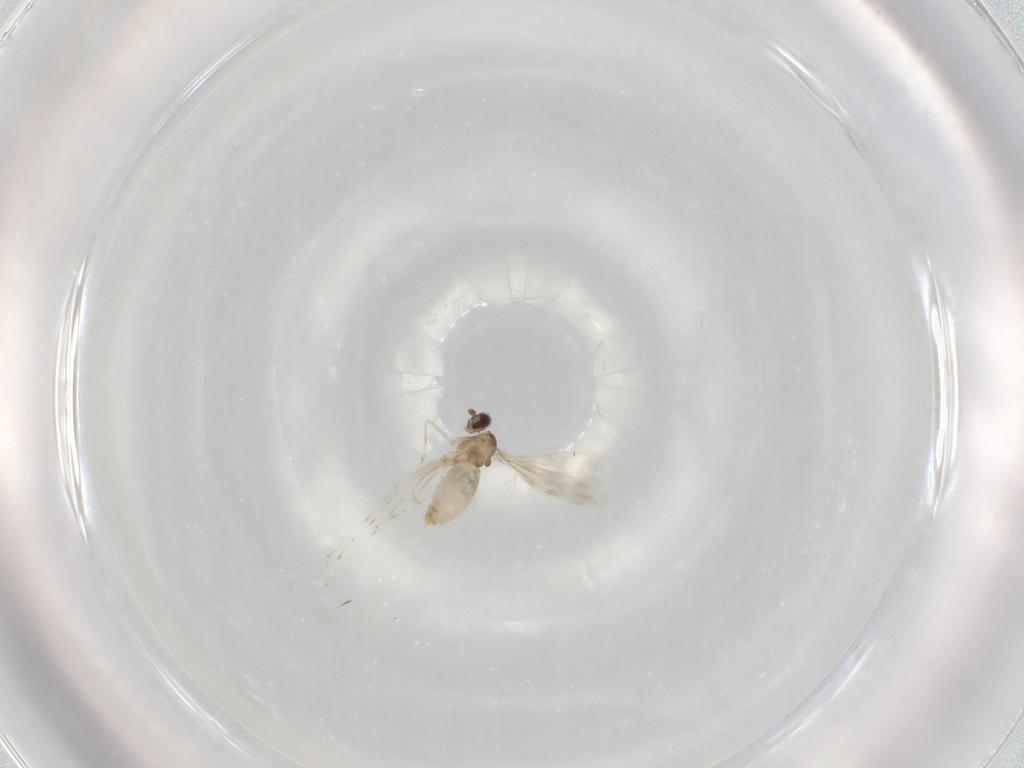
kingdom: Animalia
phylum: Arthropoda
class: Insecta
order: Diptera
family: Cecidomyiidae
